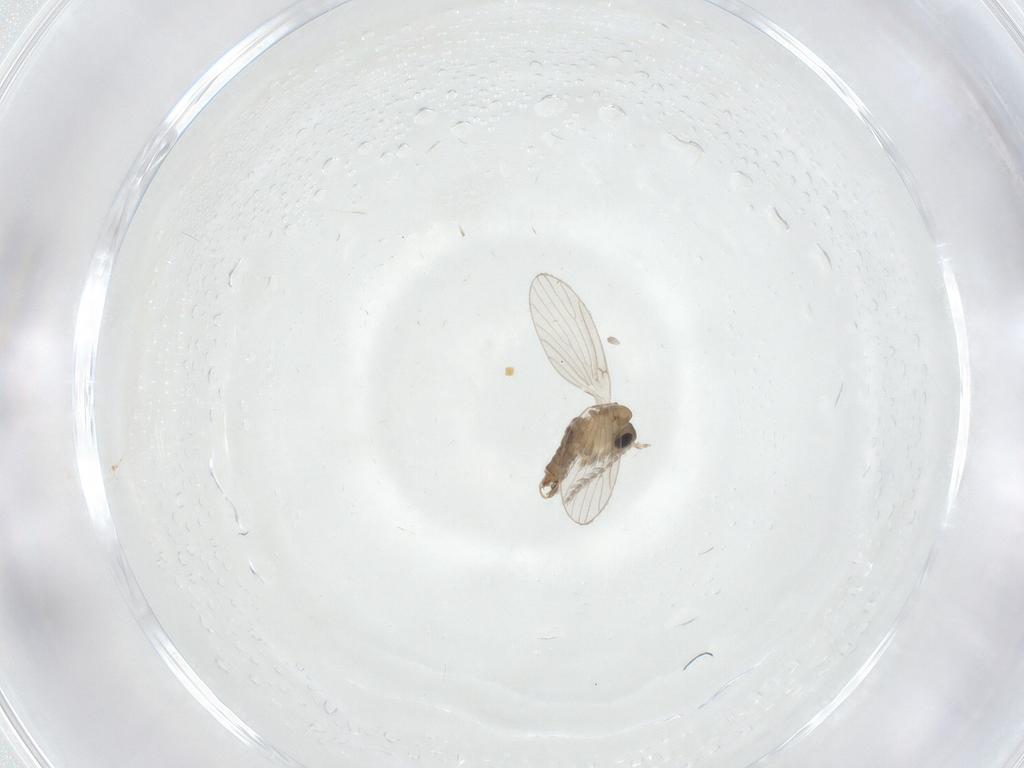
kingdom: Animalia
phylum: Arthropoda
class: Insecta
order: Diptera
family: Psychodidae
